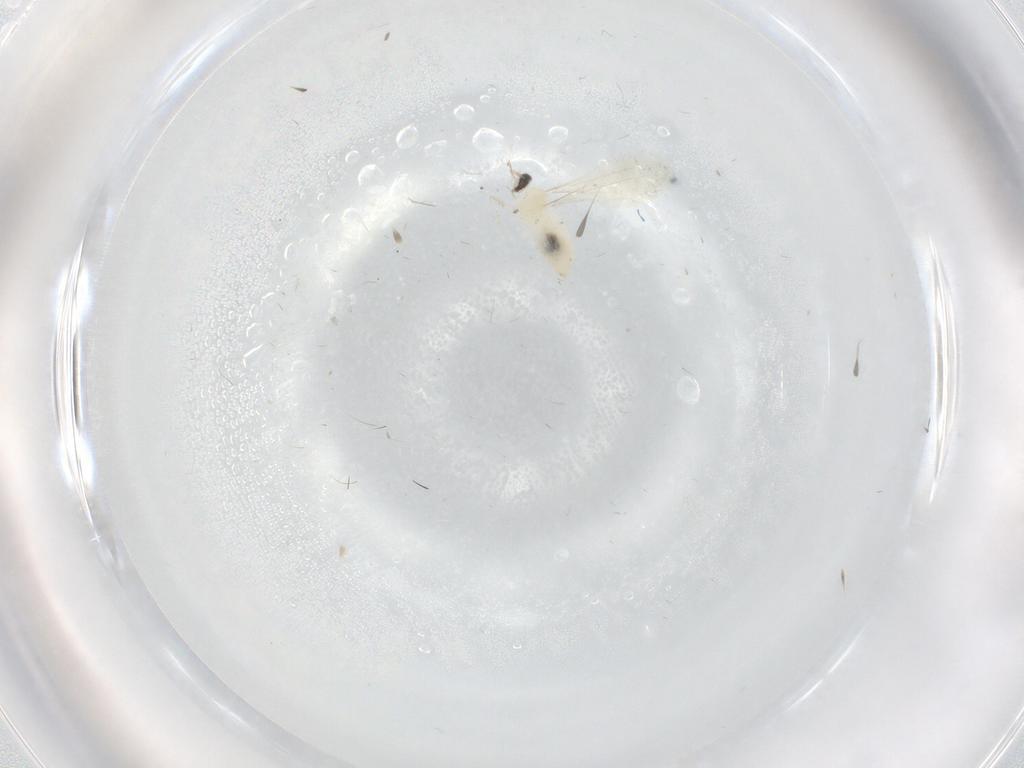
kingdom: Animalia
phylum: Arthropoda
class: Insecta
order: Diptera
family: Cecidomyiidae
